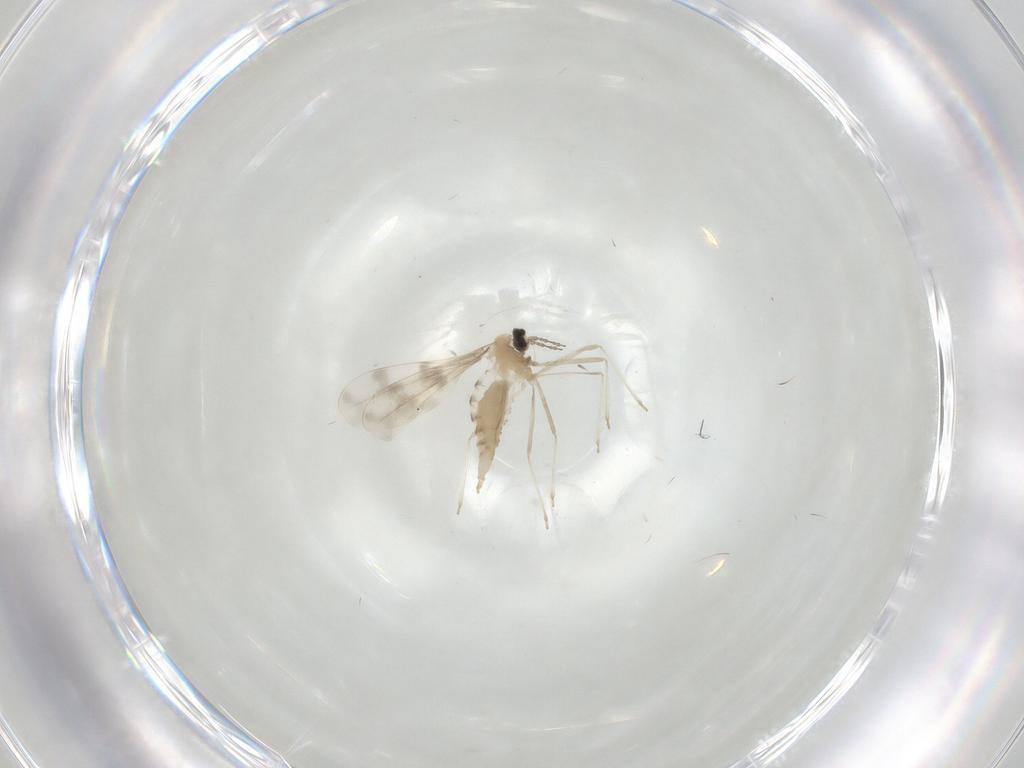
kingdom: Animalia
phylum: Arthropoda
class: Insecta
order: Diptera
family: Phoridae
